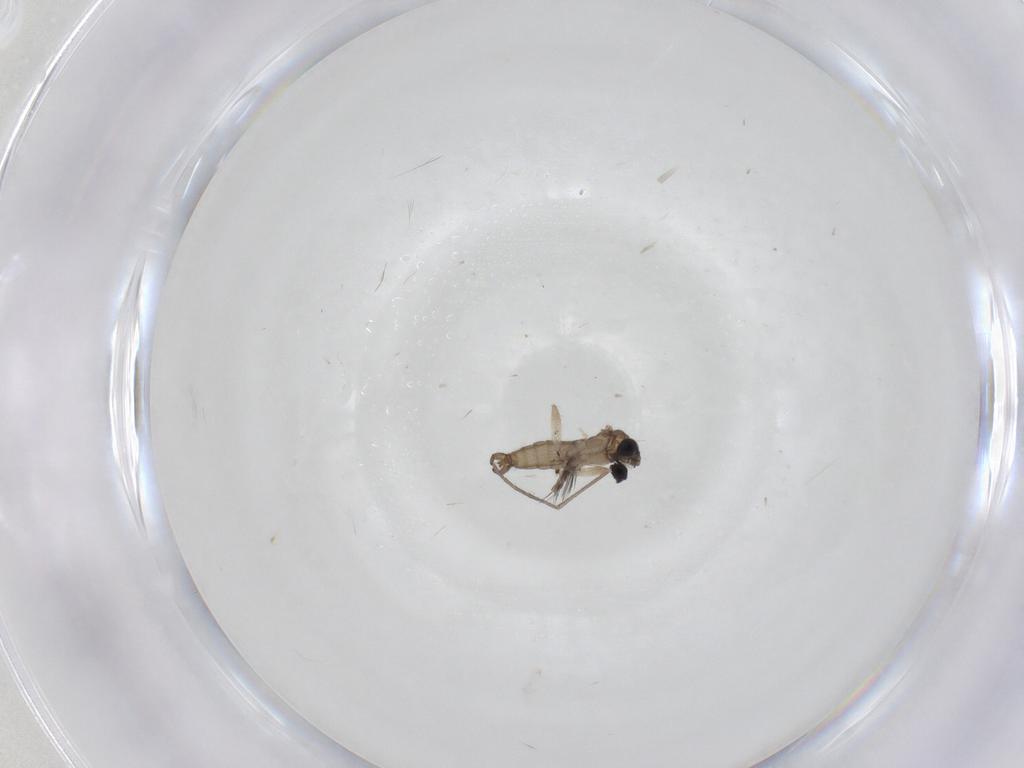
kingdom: Animalia
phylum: Arthropoda
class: Insecta
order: Diptera
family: Sciaridae
